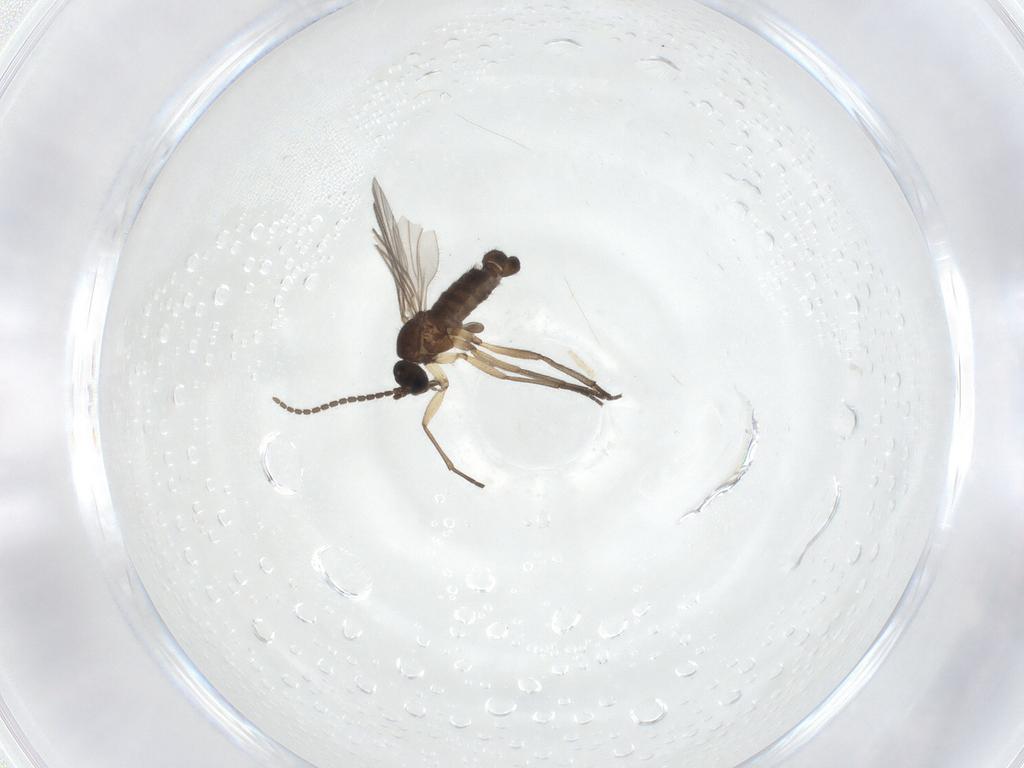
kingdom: Animalia
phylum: Arthropoda
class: Insecta
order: Diptera
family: Sciaridae
